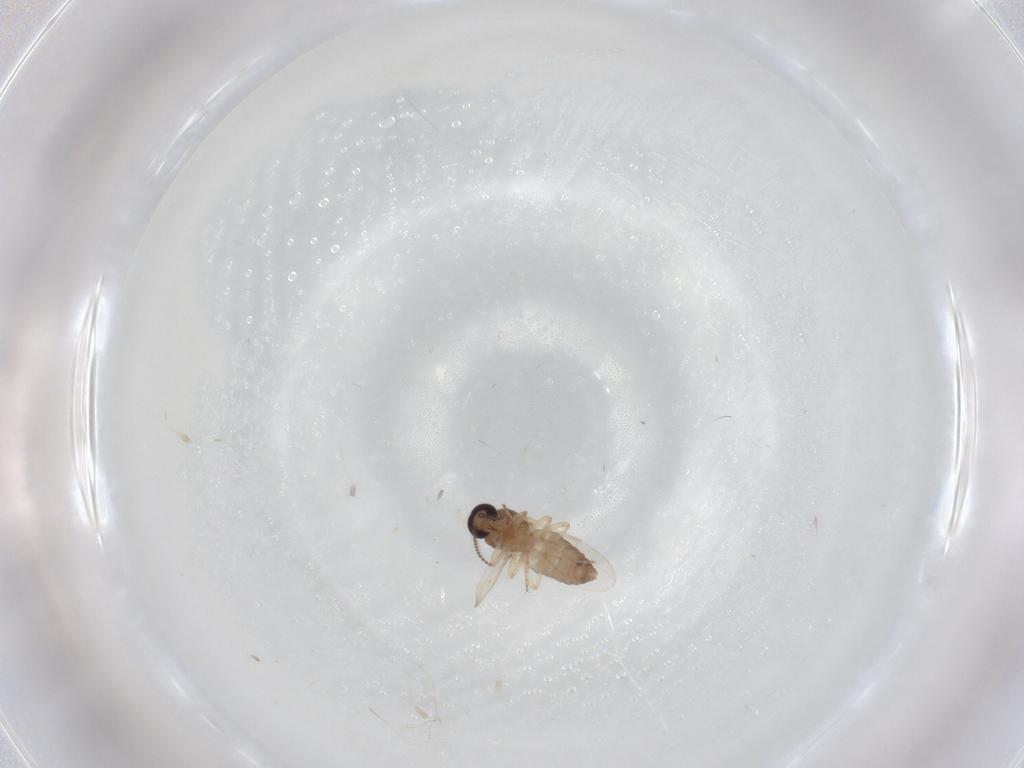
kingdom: Animalia
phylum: Arthropoda
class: Insecta
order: Diptera
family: Ceratopogonidae
